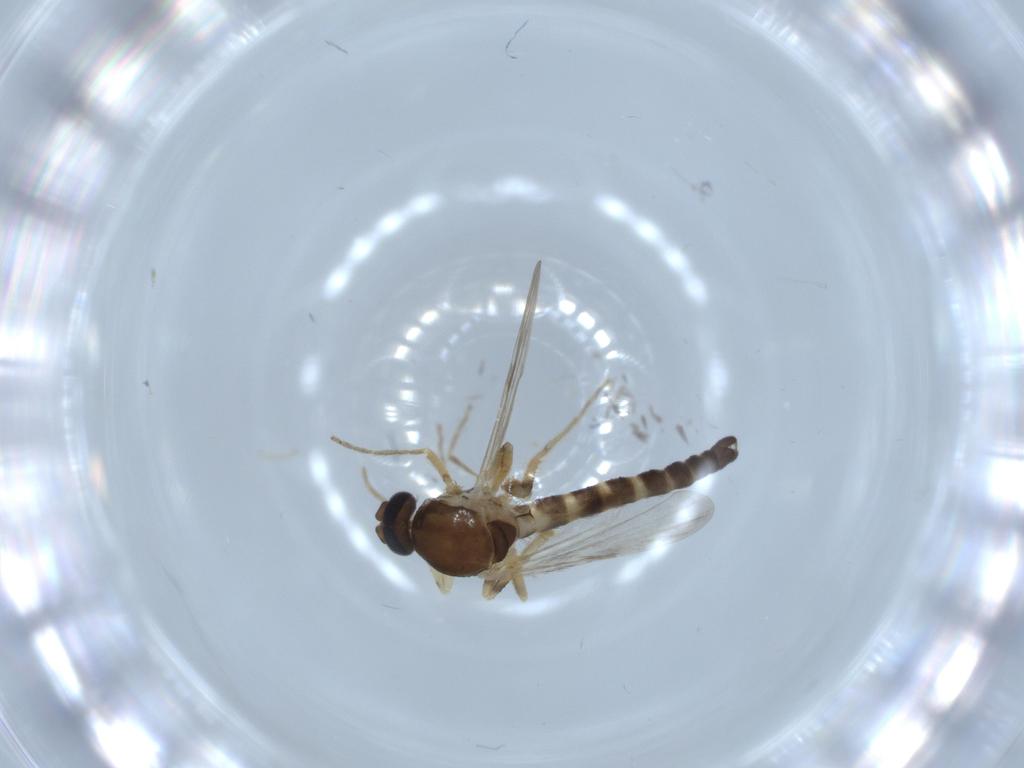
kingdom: Animalia
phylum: Arthropoda
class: Insecta
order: Diptera
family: Ceratopogonidae
